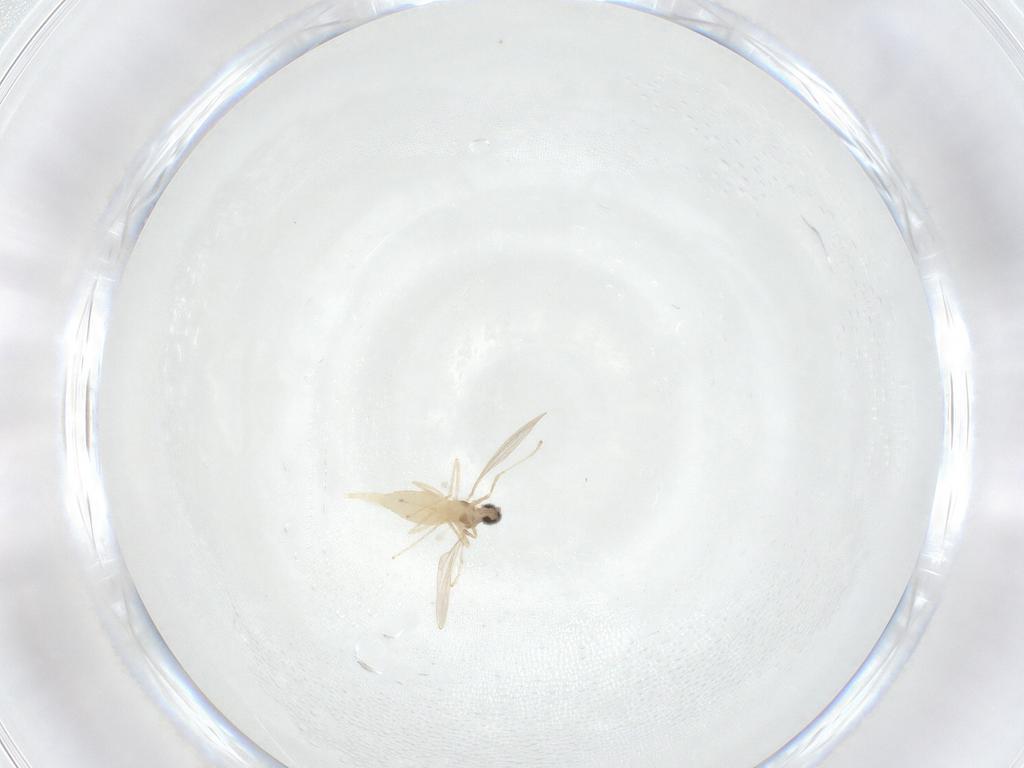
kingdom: Animalia
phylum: Arthropoda
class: Insecta
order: Diptera
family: Cecidomyiidae
